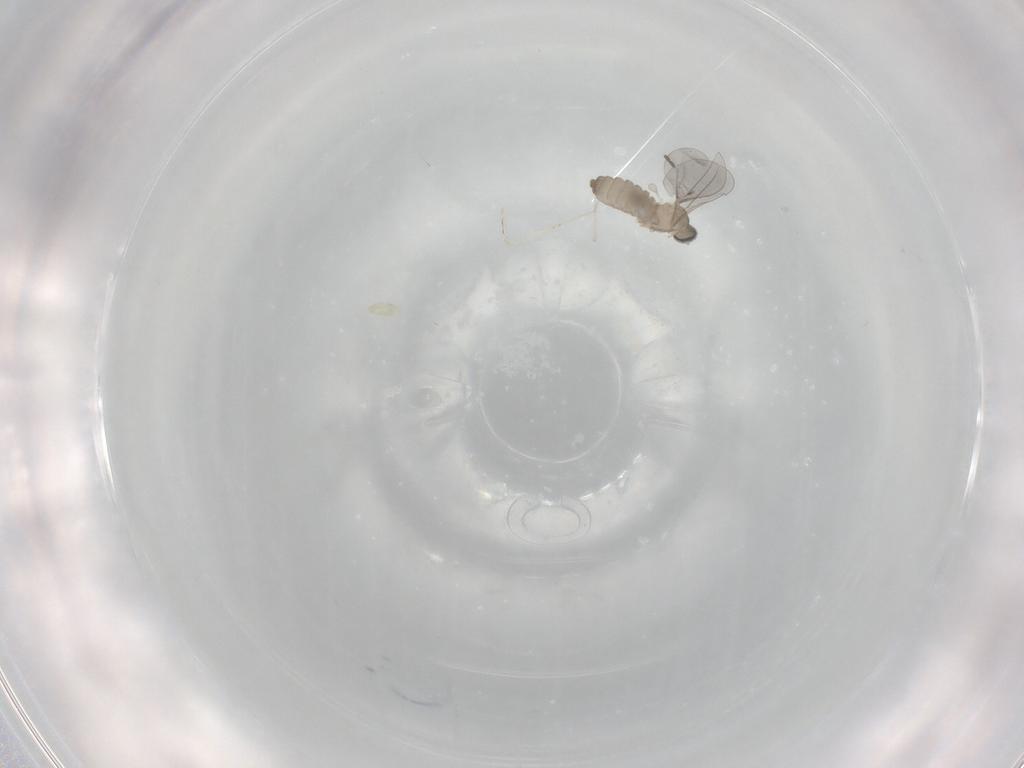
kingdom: Animalia
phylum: Arthropoda
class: Insecta
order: Diptera
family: Cecidomyiidae
